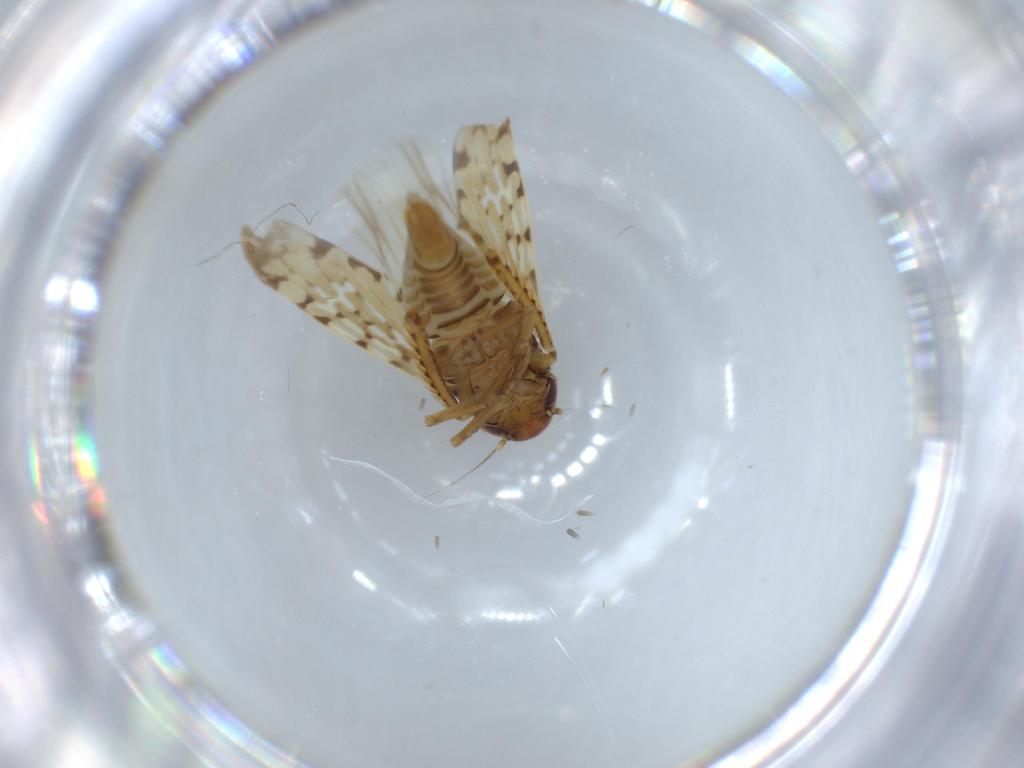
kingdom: Animalia
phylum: Arthropoda
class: Insecta
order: Hemiptera
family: Cicadellidae
